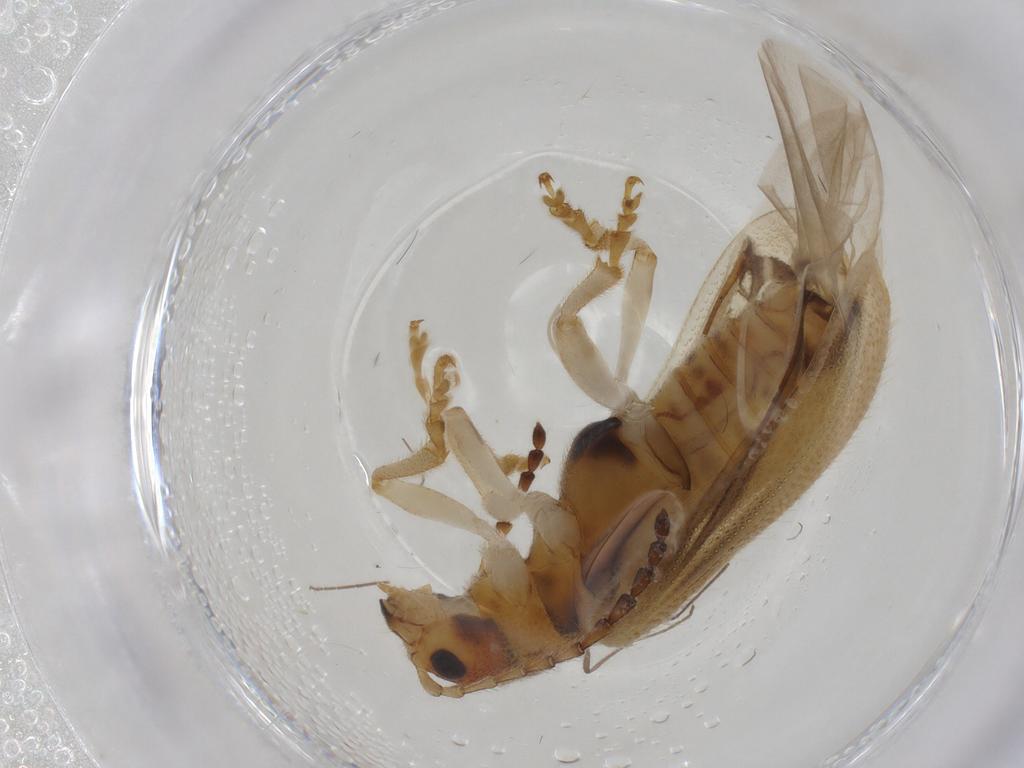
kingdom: Animalia
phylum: Arthropoda
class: Insecta
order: Coleoptera
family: Chrysomelidae
